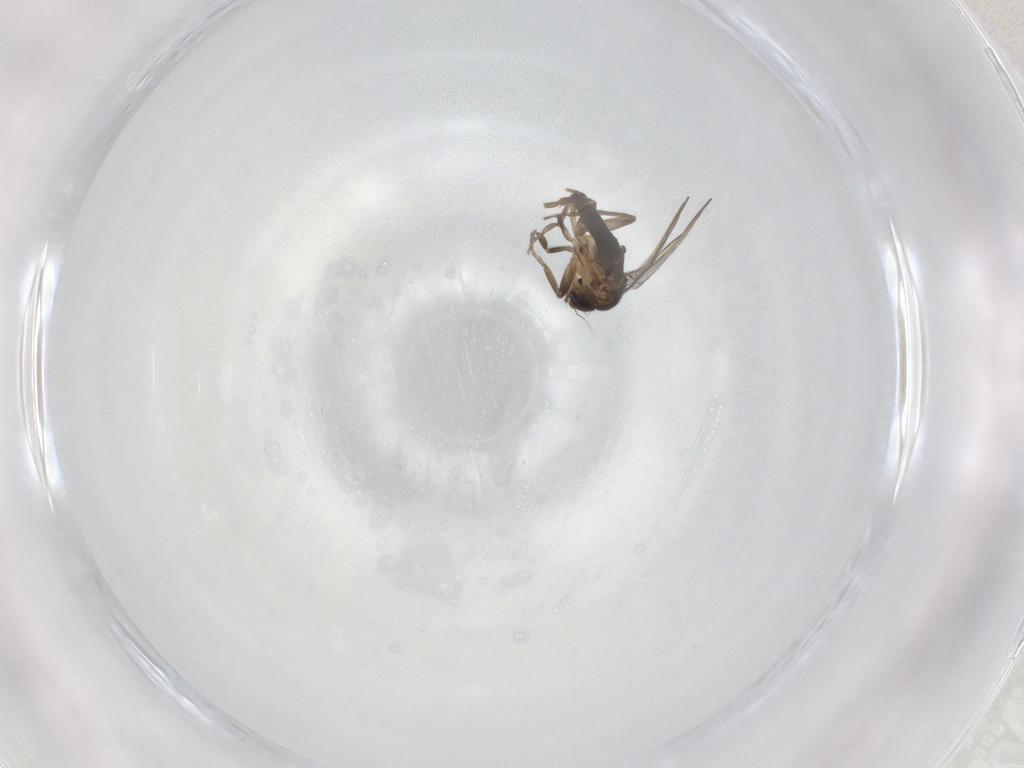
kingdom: Animalia
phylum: Arthropoda
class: Insecta
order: Diptera
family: Phoridae
